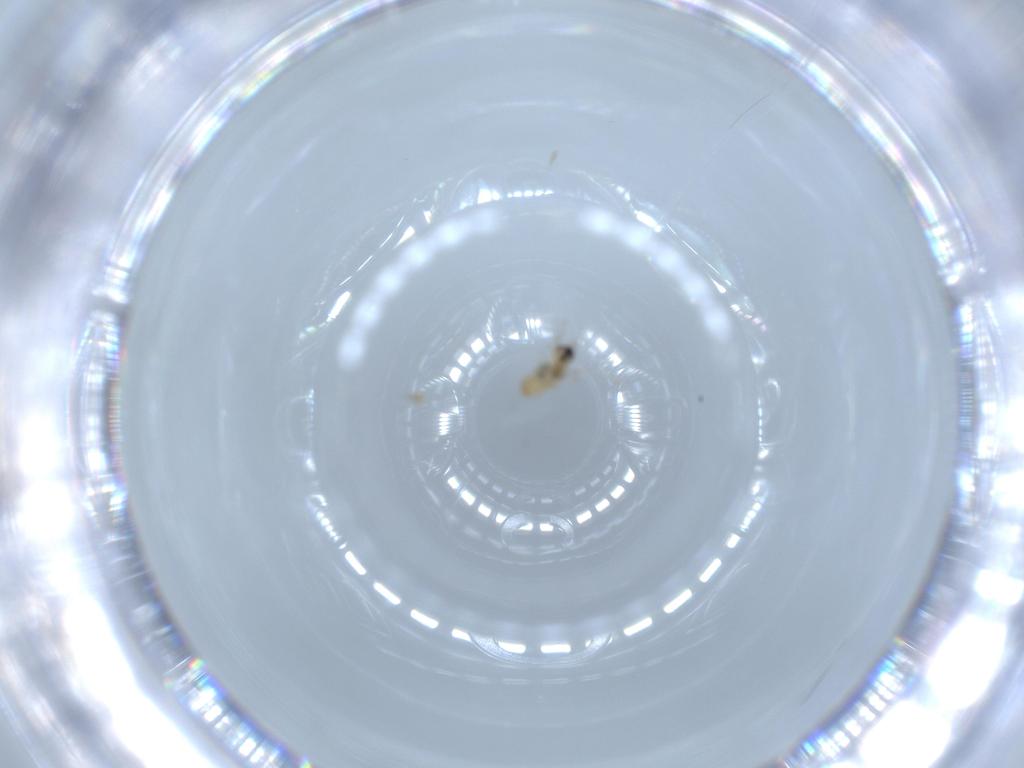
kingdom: Animalia
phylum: Arthropoda
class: Insecta
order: Diptera
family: Cecidomyiidae
